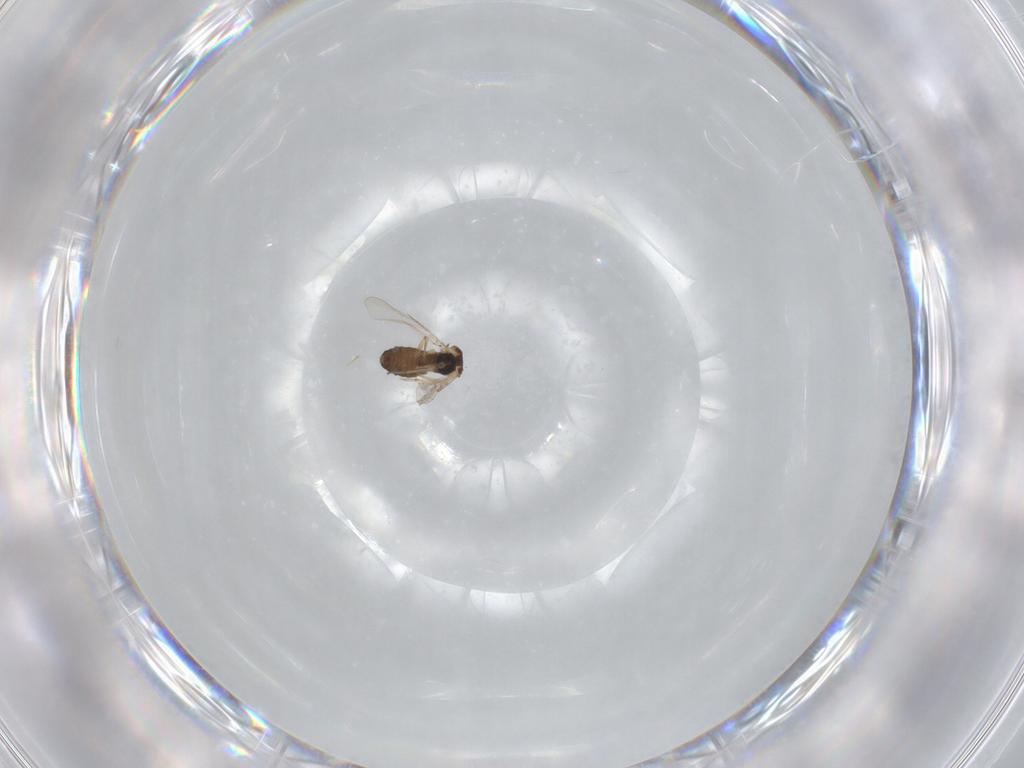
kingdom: Animalia
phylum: Arthropoda
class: Insecta
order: Diptera
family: Ceratopogonidae
